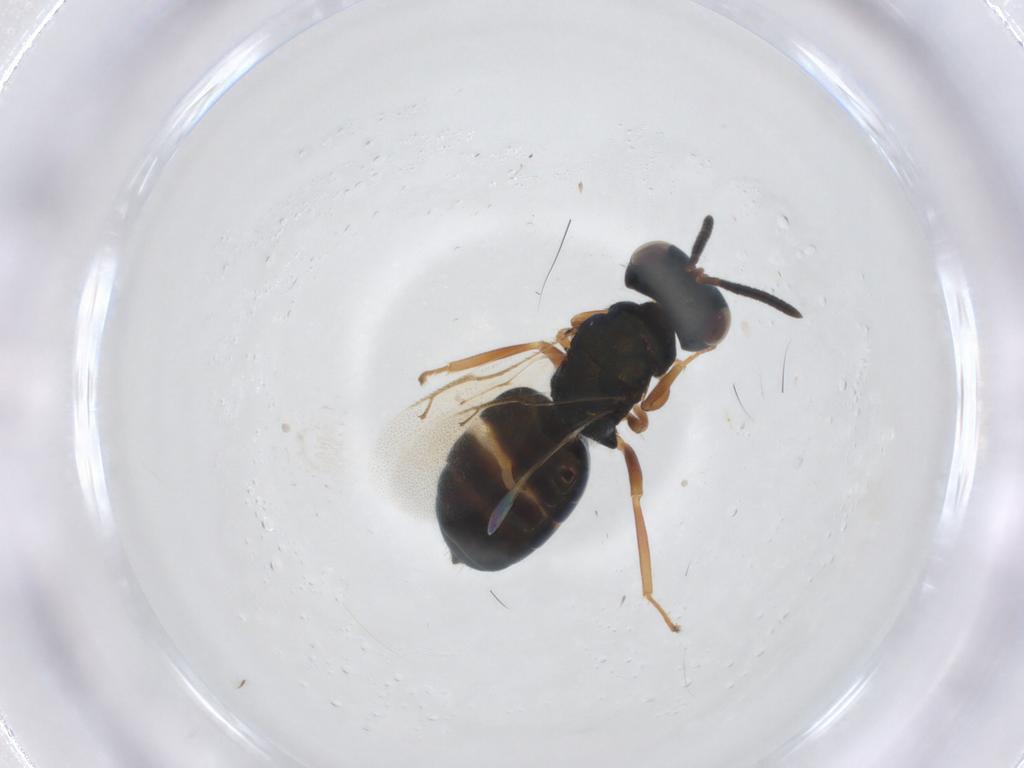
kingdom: Animalia
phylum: Arthropoda
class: Insecta
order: Hymenoptera
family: Pteromalidae
